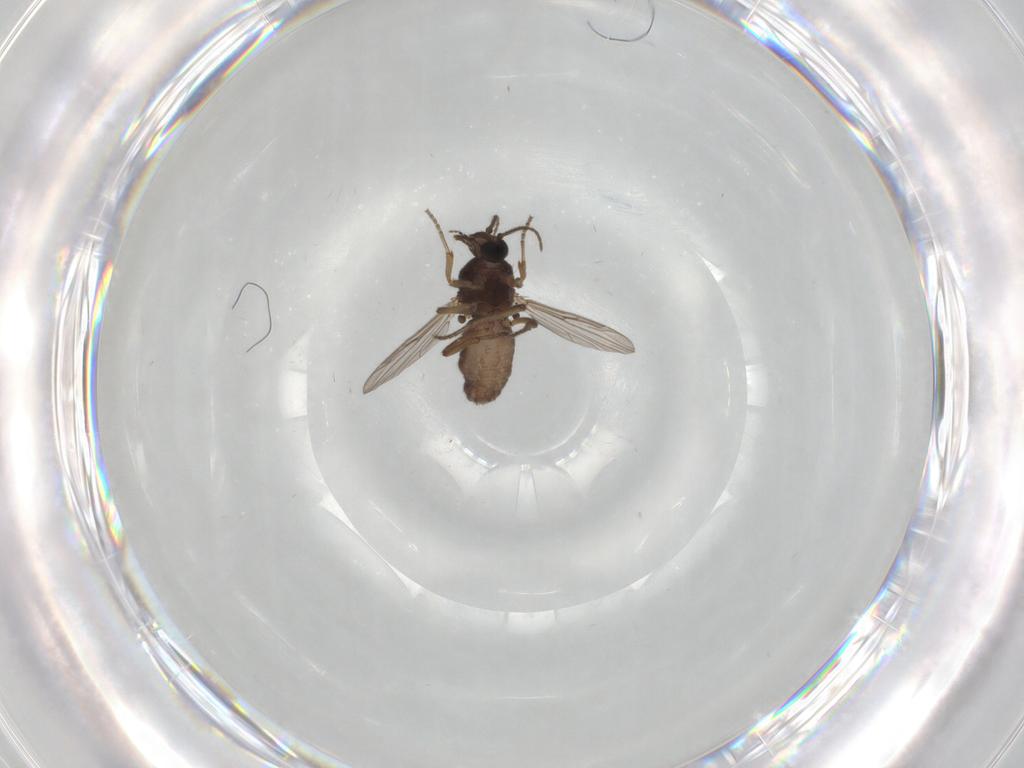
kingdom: Animalia
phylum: Arthropoda
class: Insecta
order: Diptera
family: Ceratopogonidae
